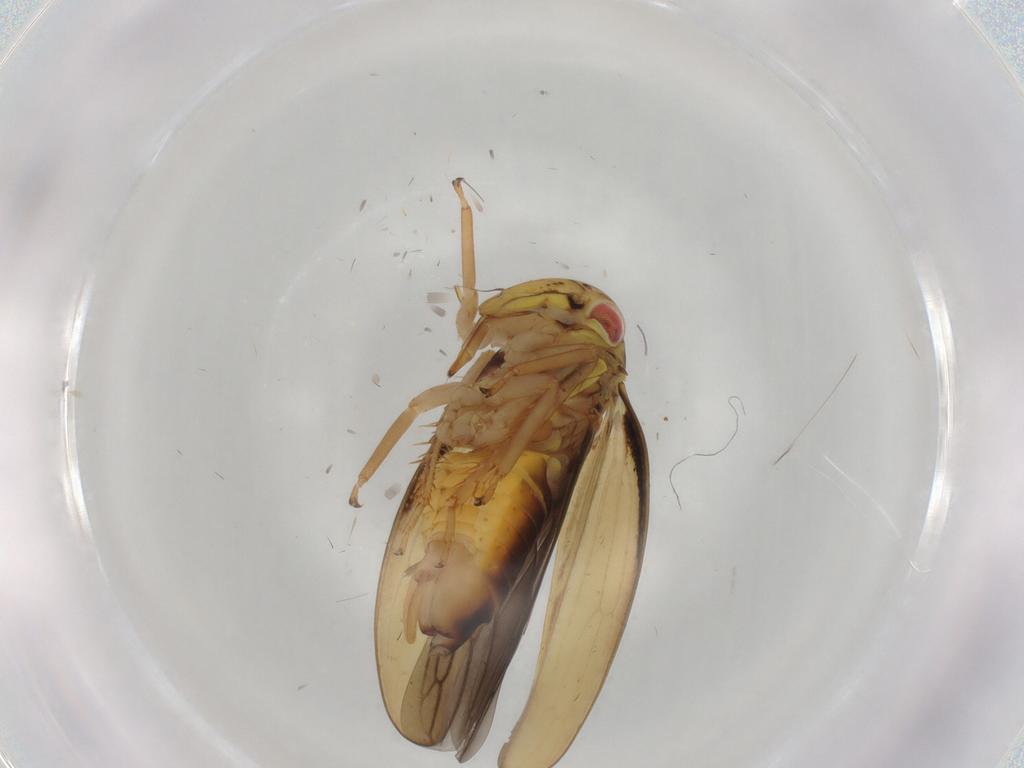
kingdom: Animalia
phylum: Arthropoda
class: Insecta
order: Hemiptera
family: Cicadellidae
